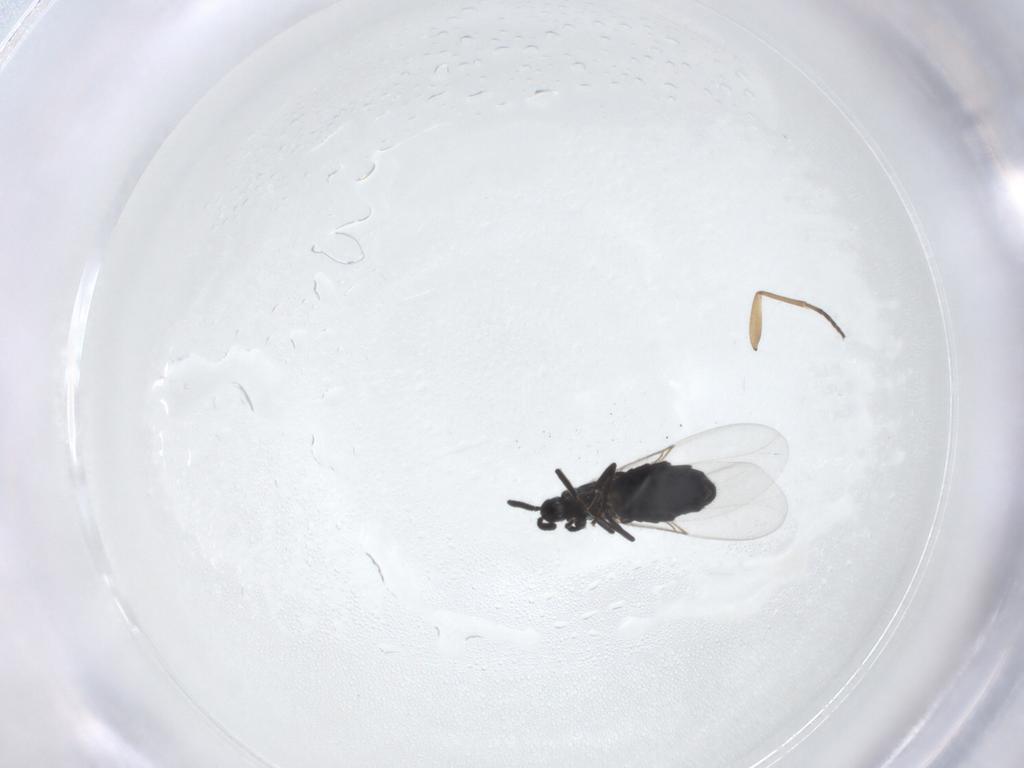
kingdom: Animalia
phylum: Arthropoda
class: Insecta
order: Diptera
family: Scatopsidae
